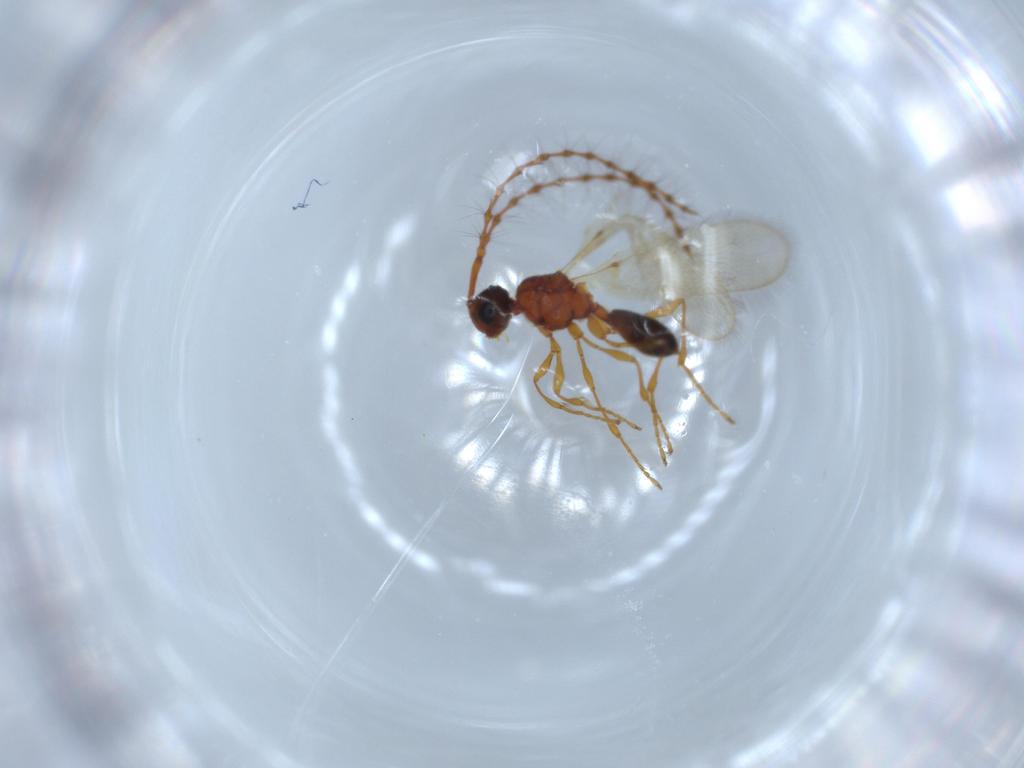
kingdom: Animalia
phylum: Arthropoda
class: Insecta
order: Hymenoptera
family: Diapriidae
